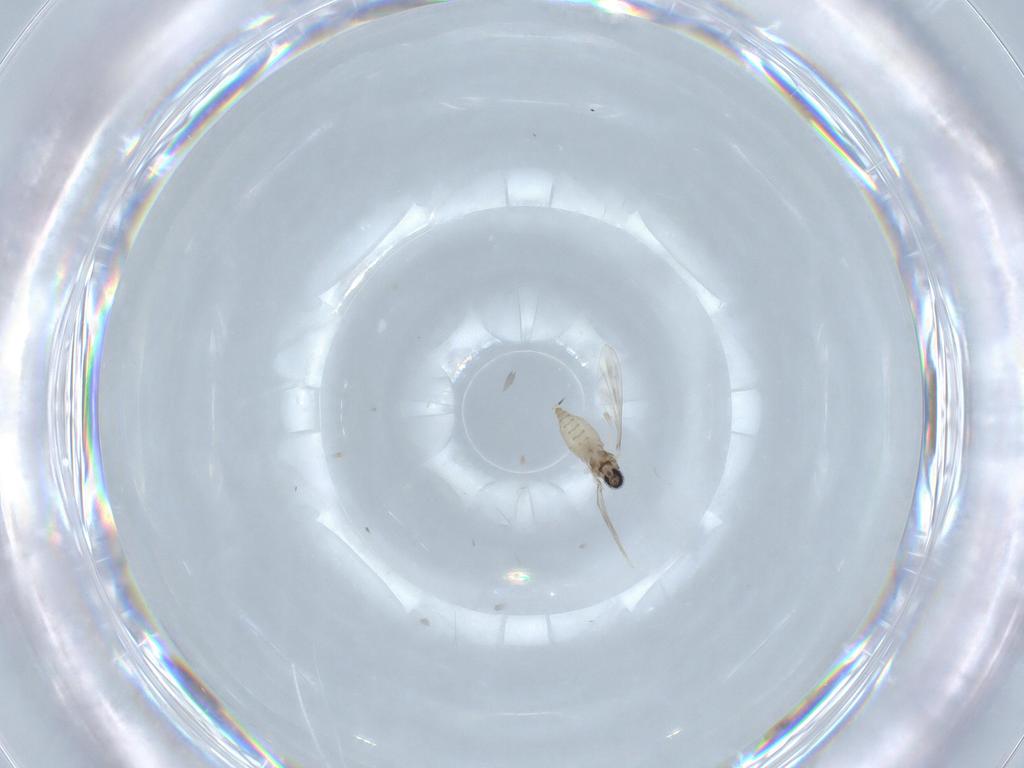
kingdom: Animalia
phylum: Arthropoda
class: Insecta
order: Diptera
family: Cecidomyiidae
